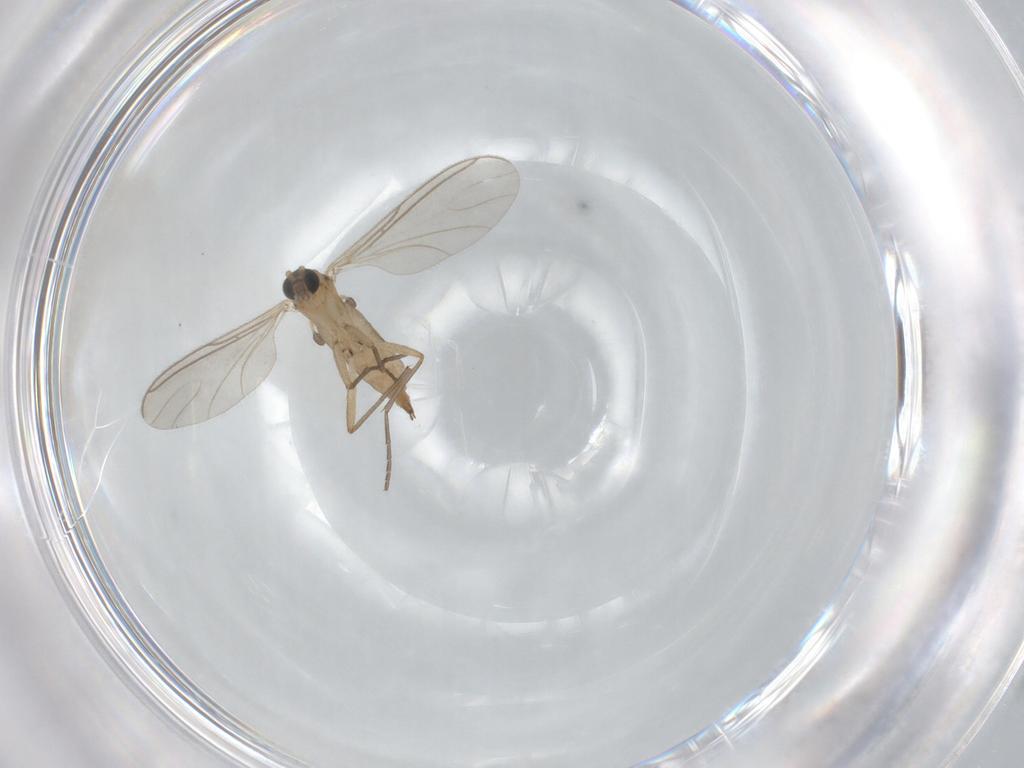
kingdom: Animalia
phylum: Arthropoda
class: Insecta
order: Diptera
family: Sciaridae
